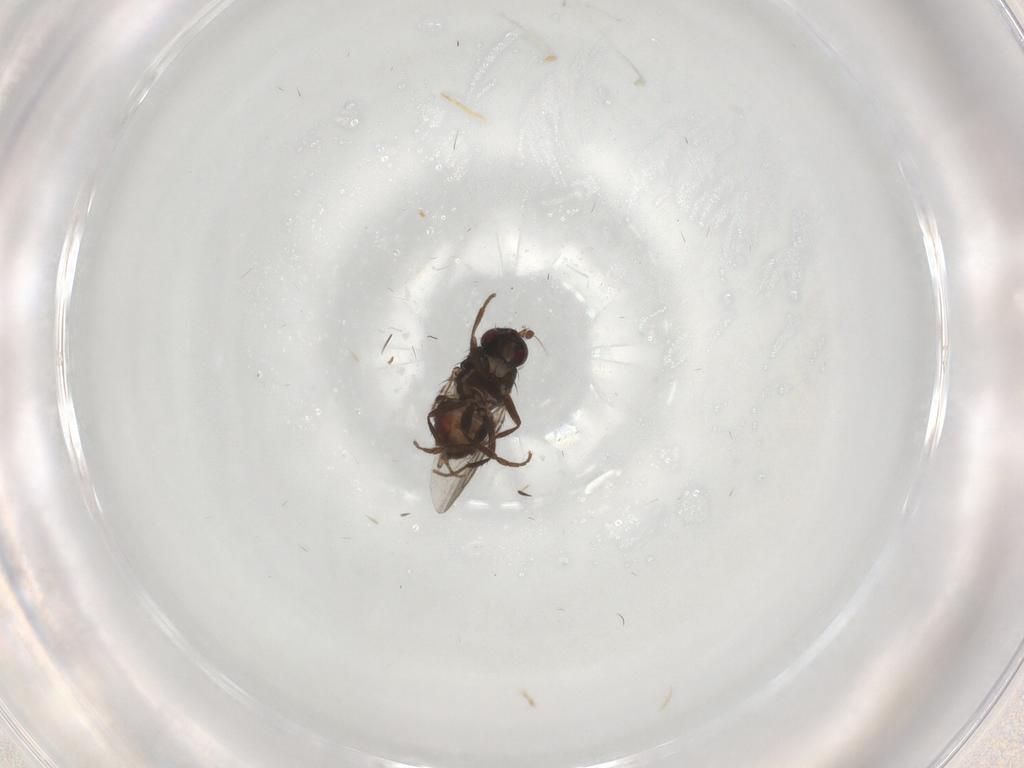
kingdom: Animalia
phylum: Arthropoda
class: Insecta
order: Diptera
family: Sphaeroceridae
